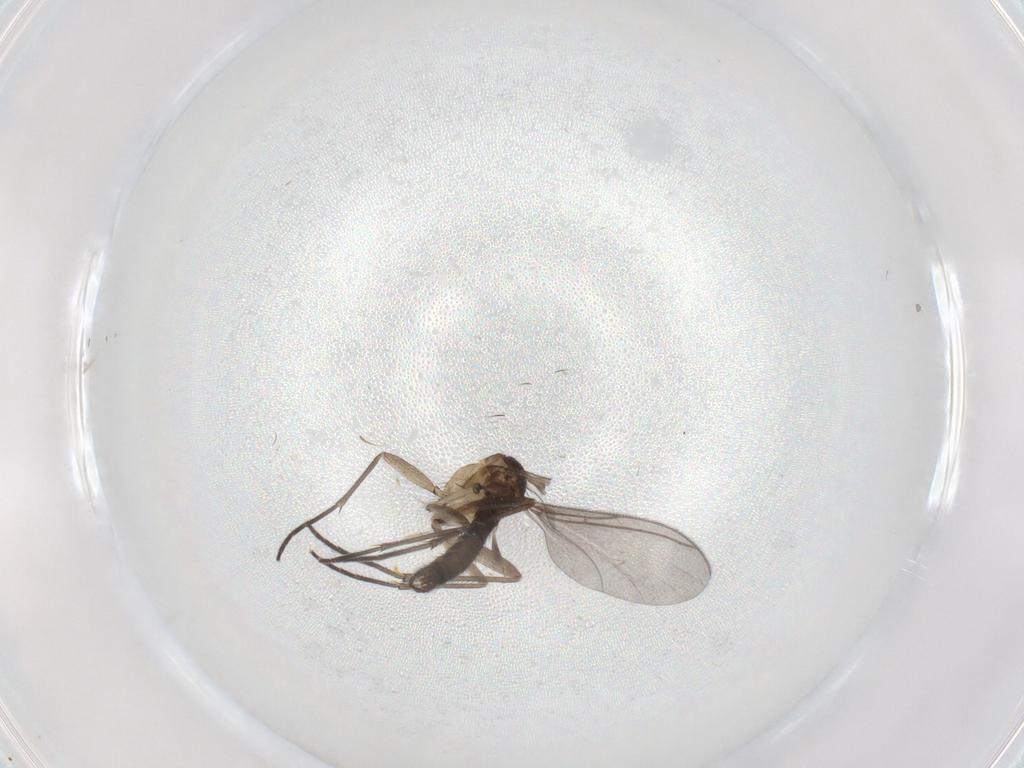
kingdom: Animalia
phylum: Arthropoda
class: Insecta
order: Diptera
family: Sciaridae
